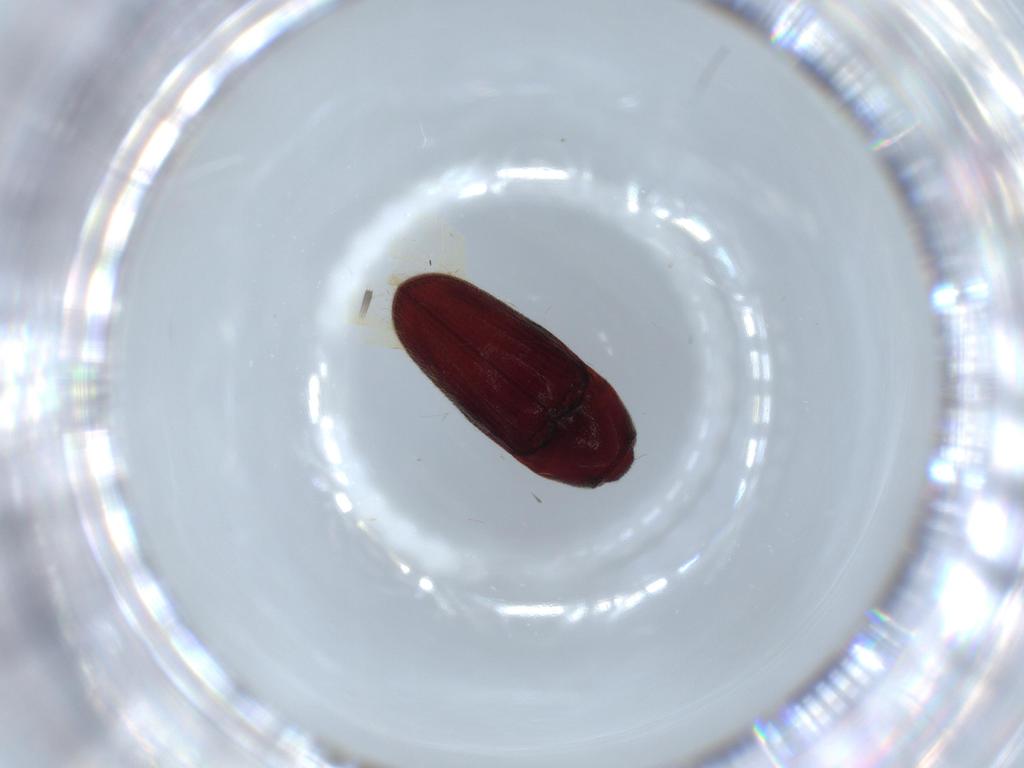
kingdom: Animalia
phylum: Arthropoda
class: Insecta
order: Coleoptera
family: Throscidae
